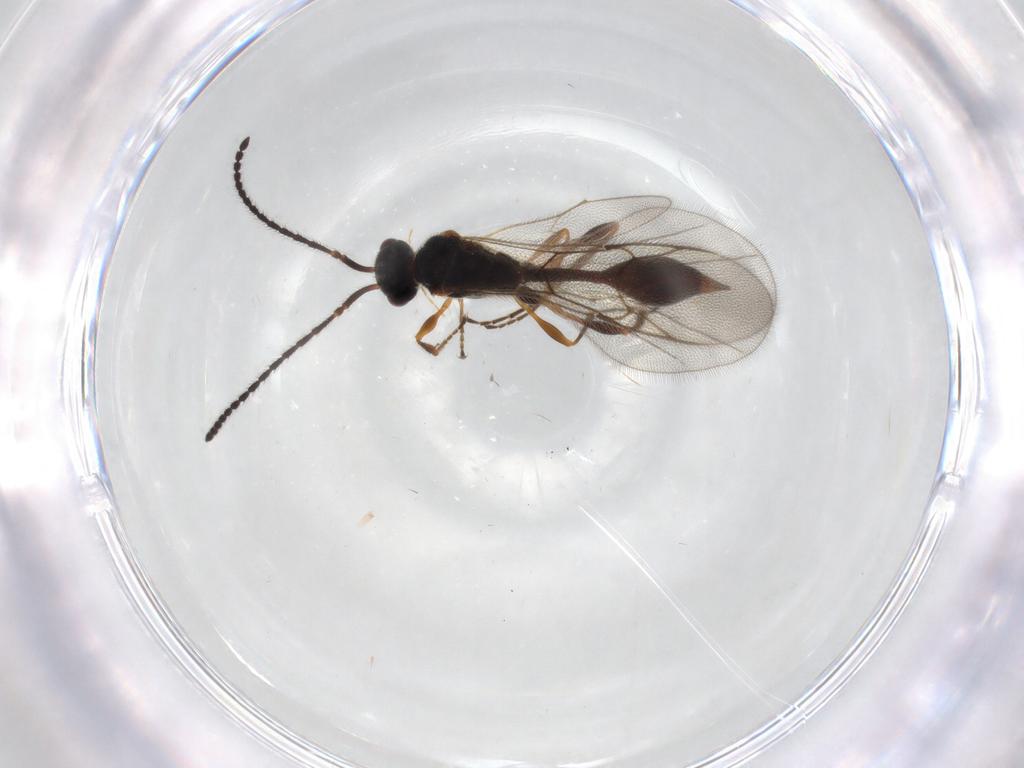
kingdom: Animalia
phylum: Arthropoda
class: Insecta
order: Hymenoptera
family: Diapriidae
